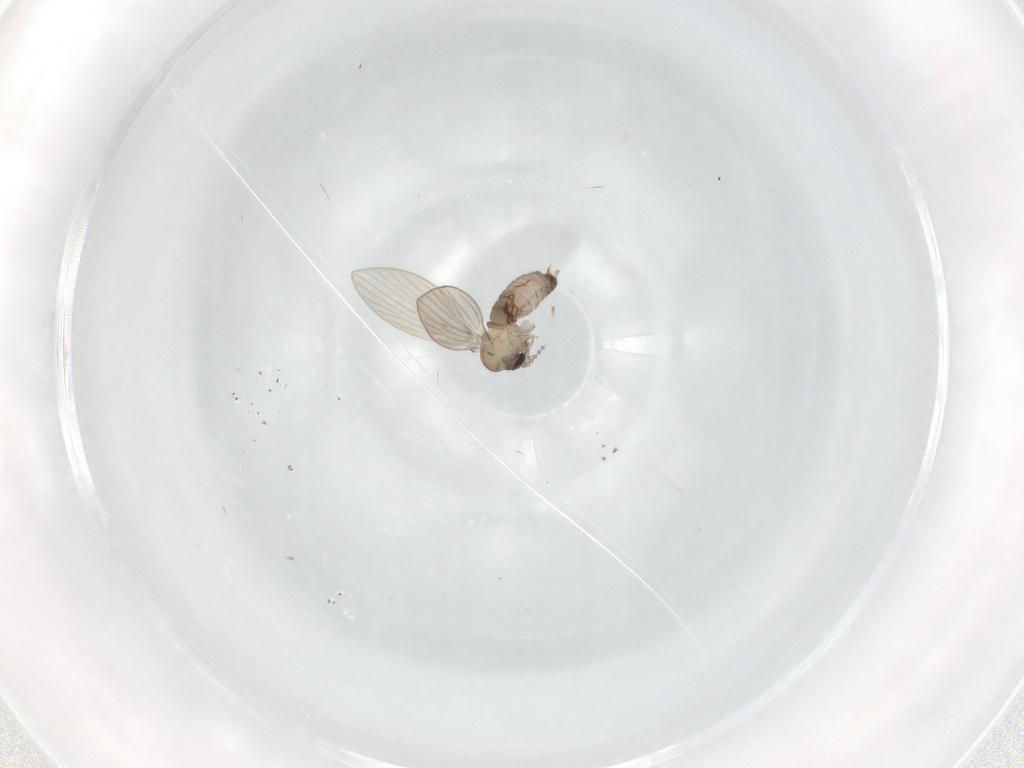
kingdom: Animalia
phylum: Arthropoda
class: Insecta
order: Diptera
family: Psychodidae
